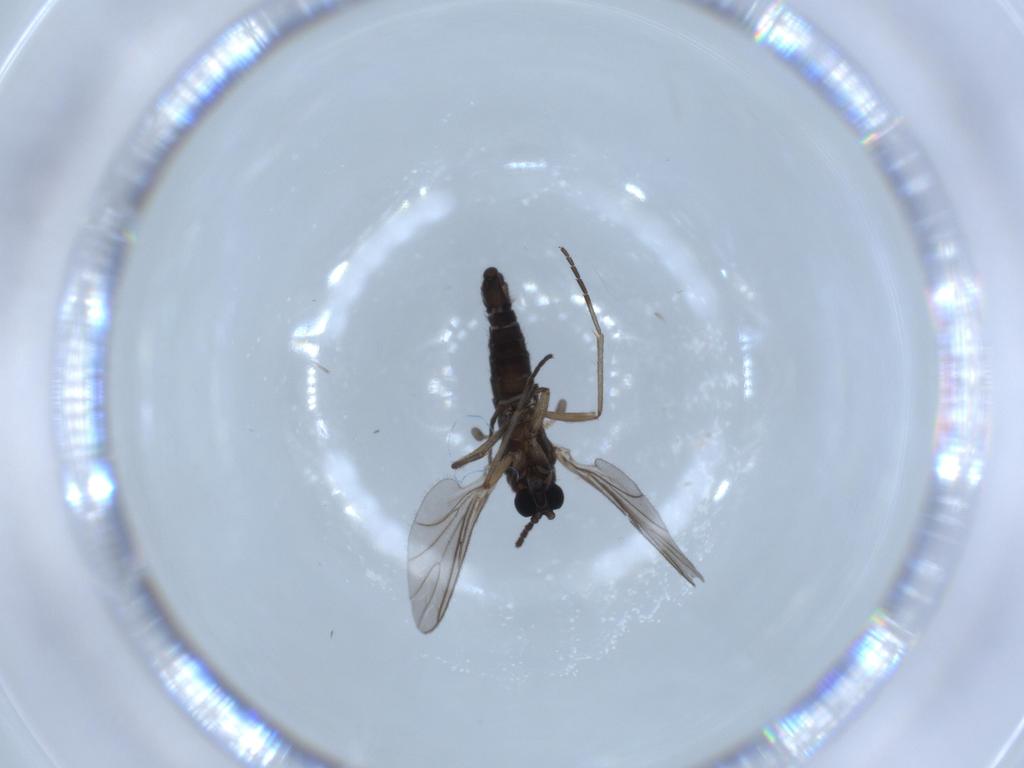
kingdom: Animalia
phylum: Arthropoda
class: Insecta
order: Diptera
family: Sciaridae
